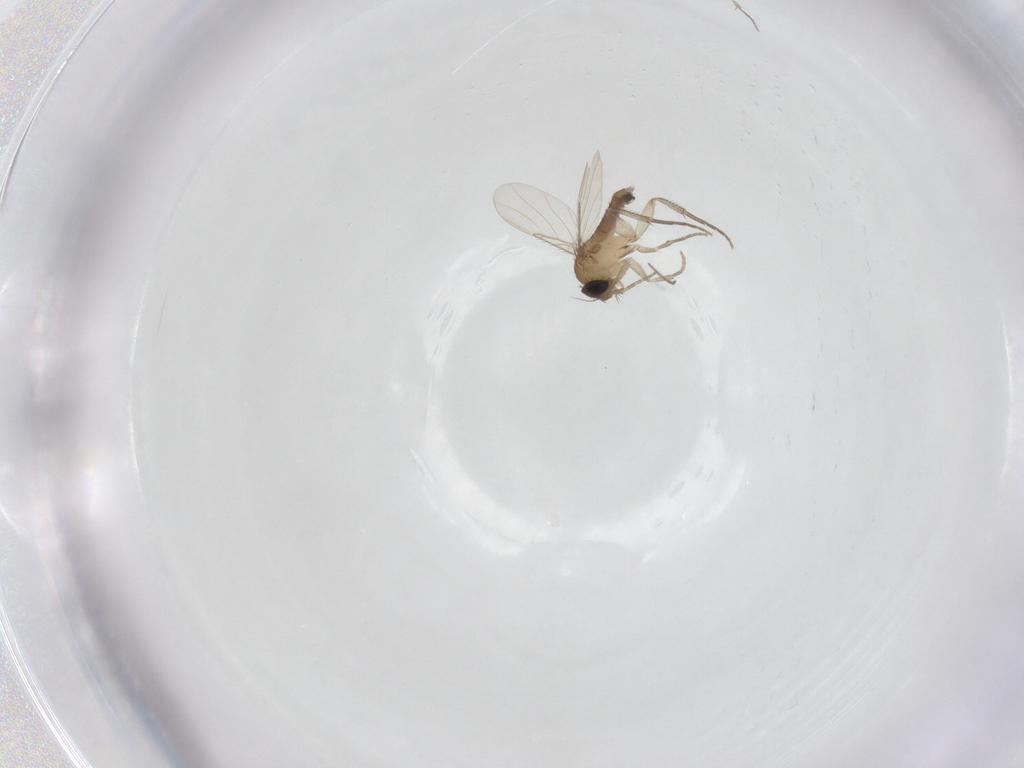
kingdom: Animalia
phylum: Arthropoda
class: Insecta
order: Diptera
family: Phoridae
